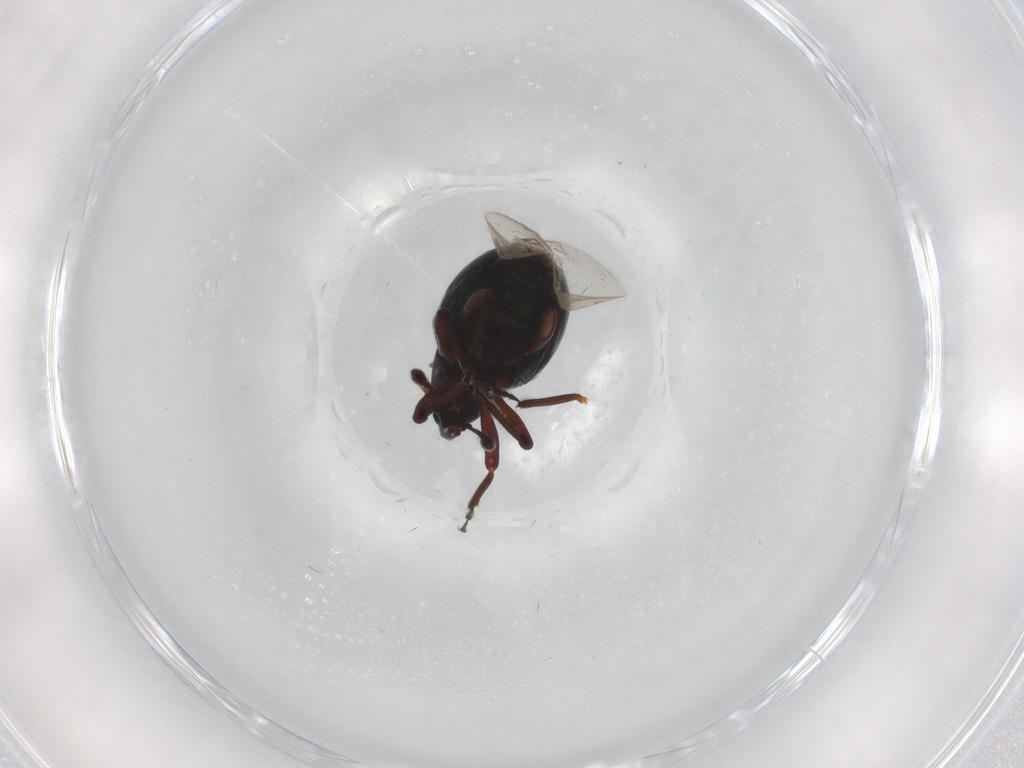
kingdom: Animalia
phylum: Arthropoda
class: Insecta
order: Coleoptera
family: Curculionidae
